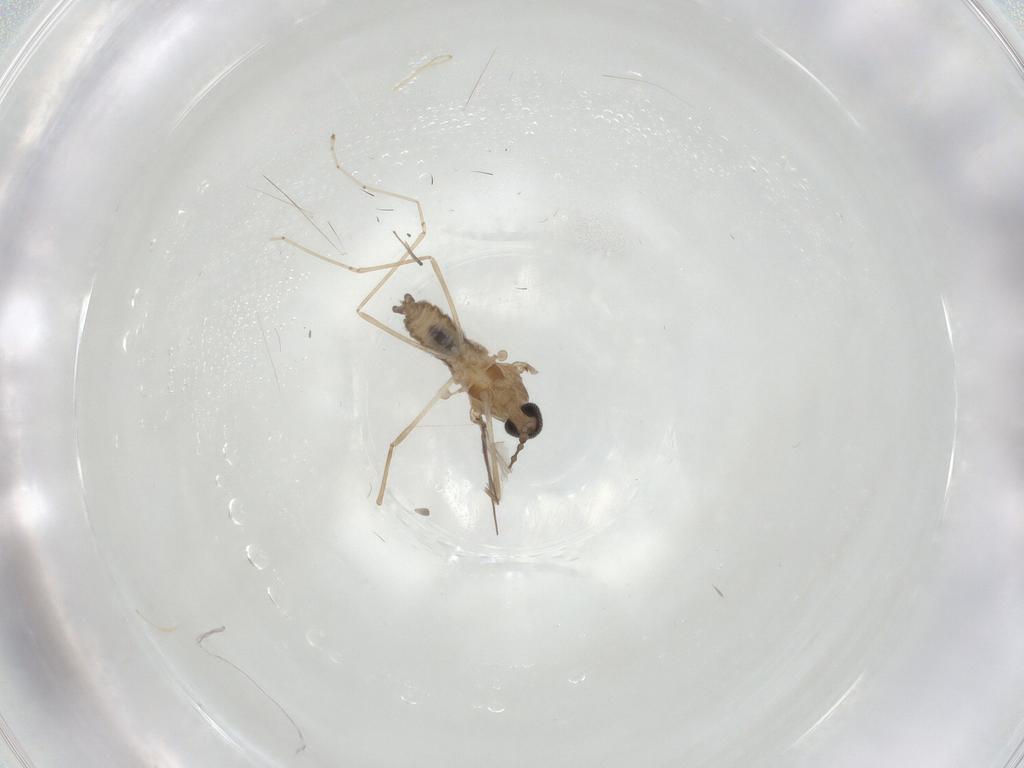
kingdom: Animalia
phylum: Arthropoda
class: Insecta
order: Diptera
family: Cecidomyiidae
